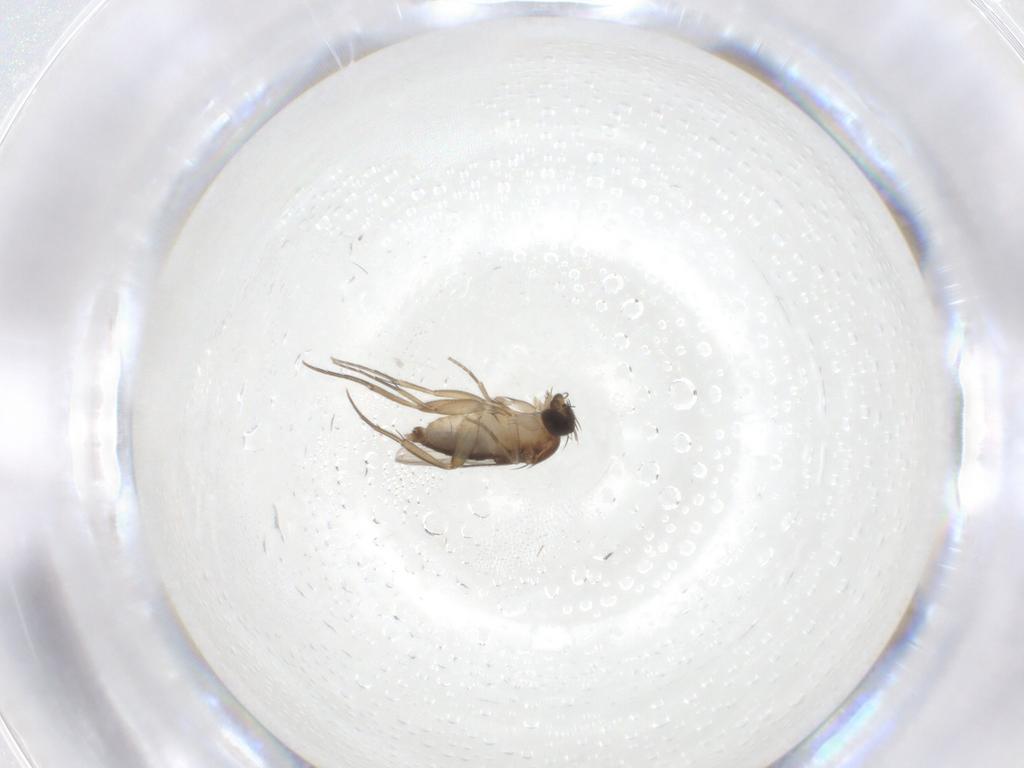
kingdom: Animalia
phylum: Arthropoda
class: Insecta
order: Diptera
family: Phoridae
